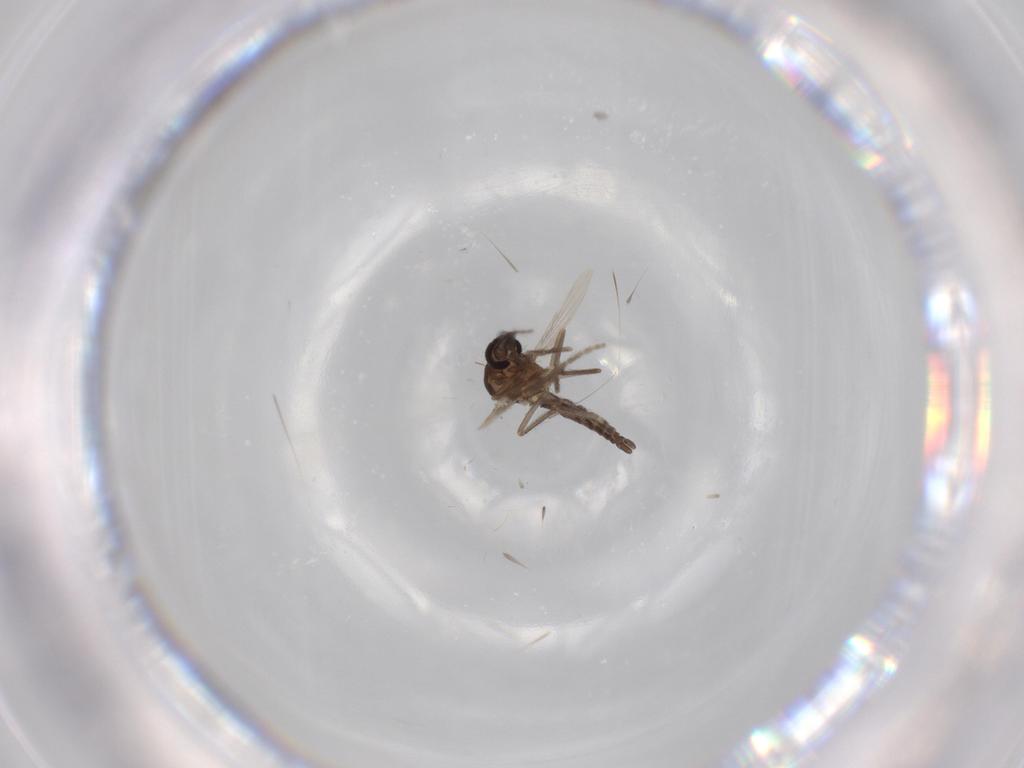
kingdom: Animalia
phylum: Arthropoda
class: Insecta
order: Diptera
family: Ceratopogonidae
